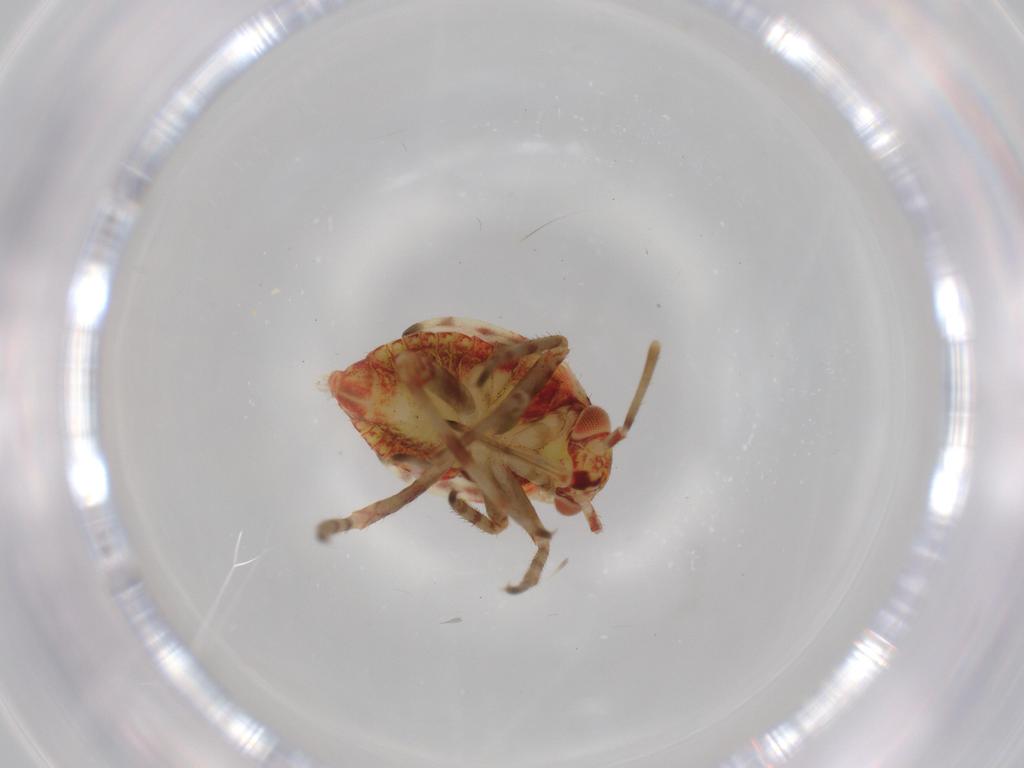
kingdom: Animalia
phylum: Arthropoda
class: Insecta
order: Hemiptera
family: Miridae
